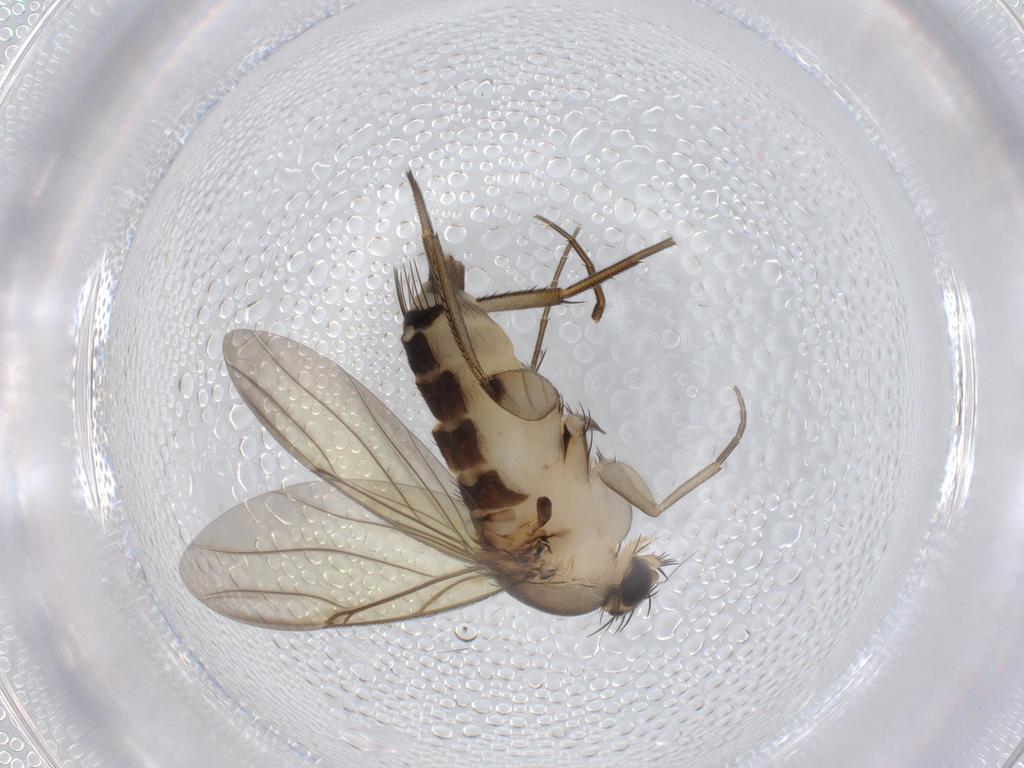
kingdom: Animalia
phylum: Arthropoda
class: Insecta
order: Diptera
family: Phoridae
